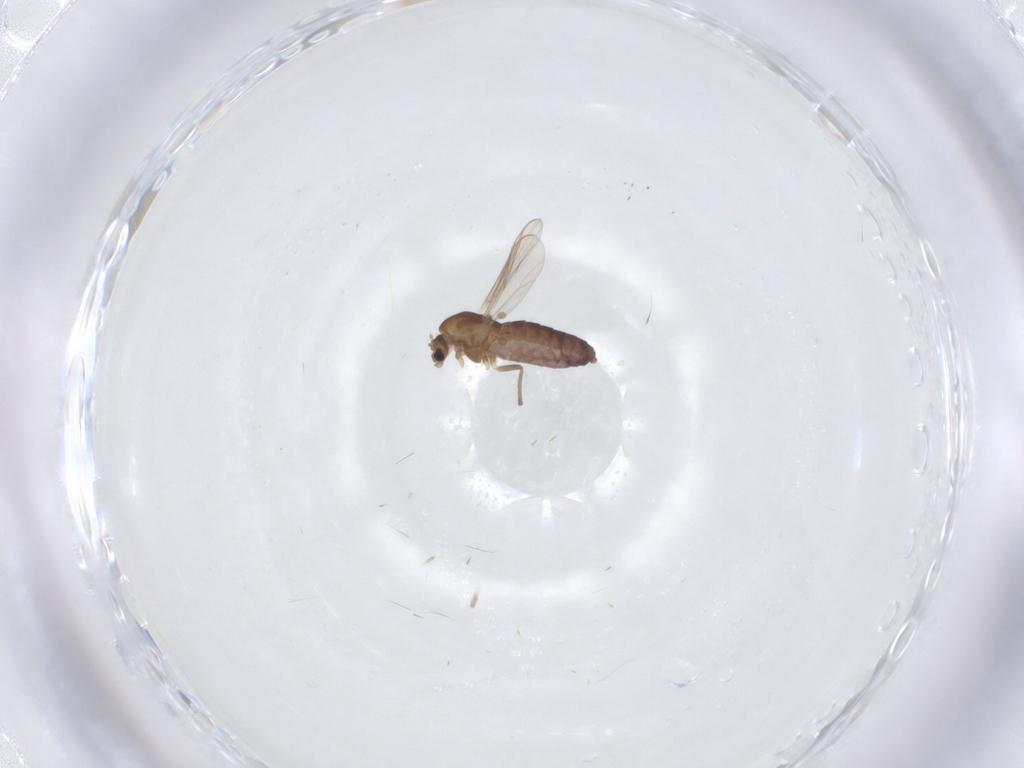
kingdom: Animalia
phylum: Arthropoda
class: Insecta
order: Diptera
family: Chironomidae
